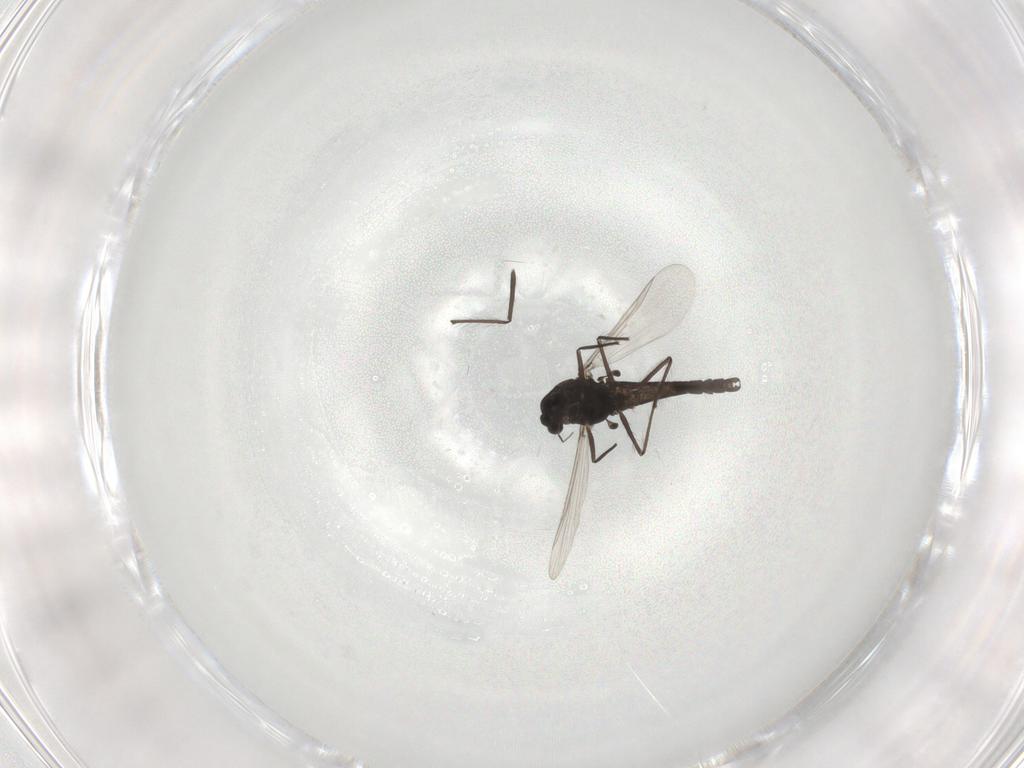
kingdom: Animalia
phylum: Arthropoda
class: Insecta
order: Diptera
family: Chironomidae
